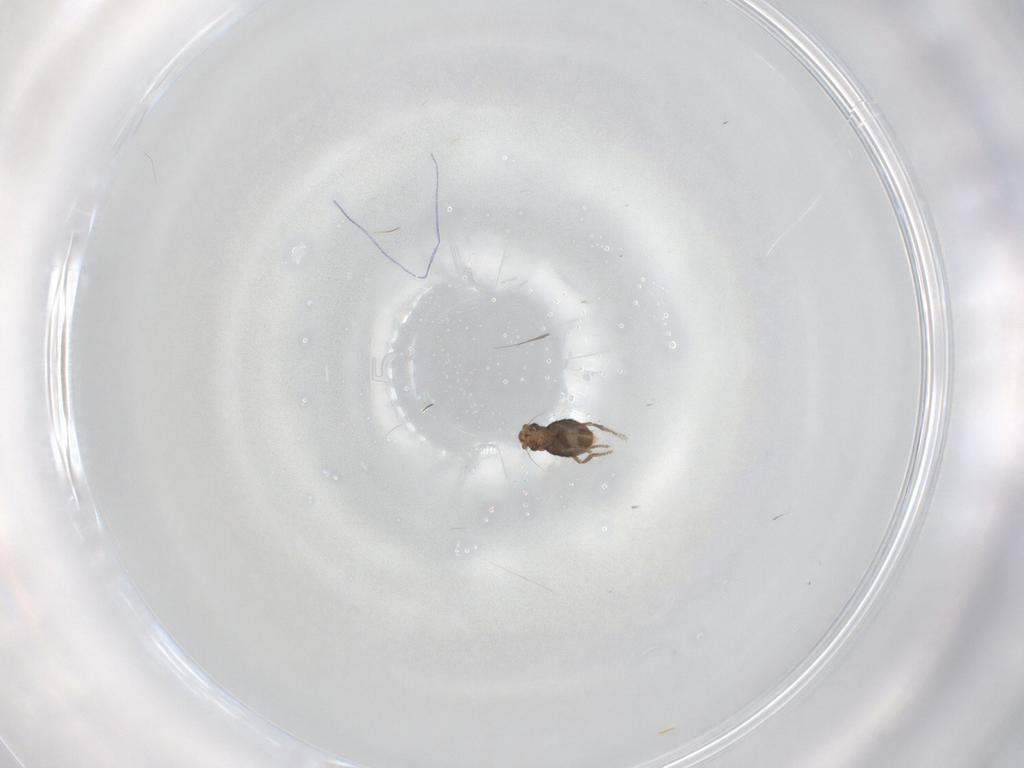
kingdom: Animalia
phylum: Arthropoda
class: Insecta
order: Diptera
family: Phoridae
